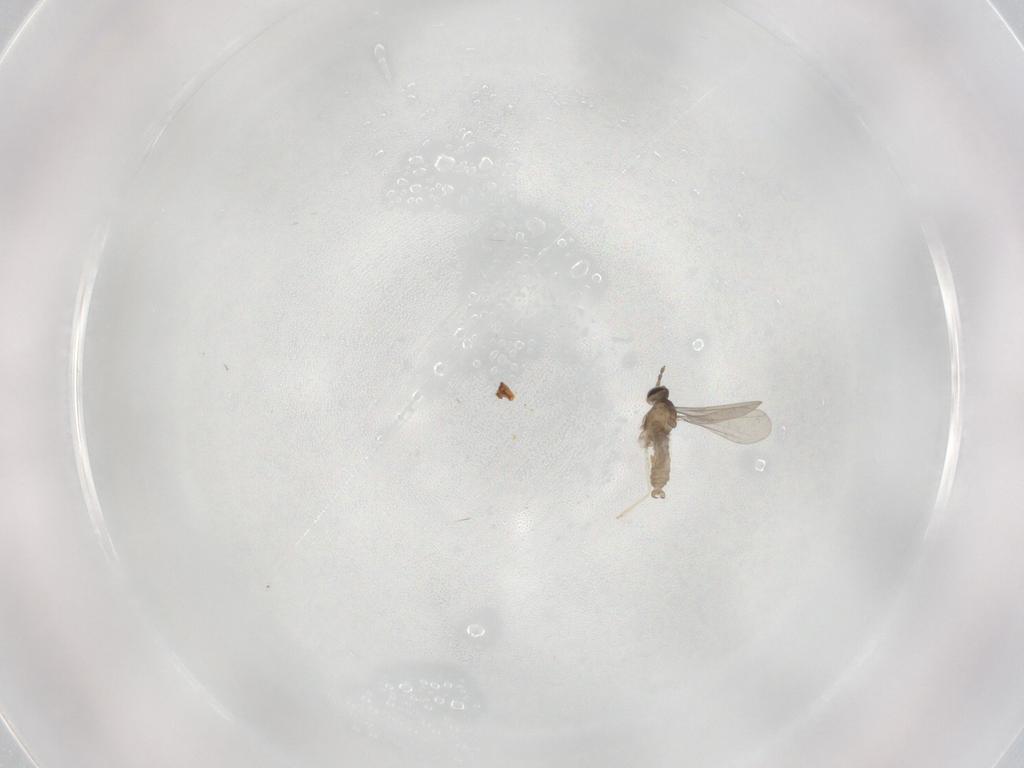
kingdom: Animalia
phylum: Arthropoda
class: Insecta
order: Diptera
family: Sciaridae
